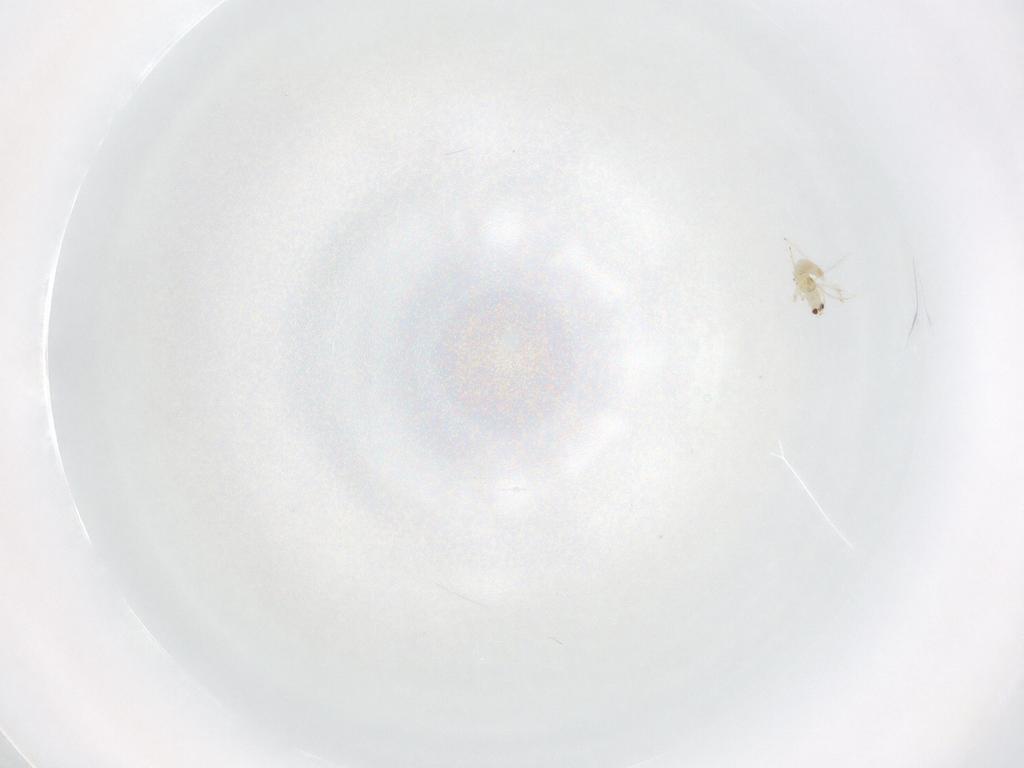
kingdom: Animalia
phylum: Arthropoda
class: Insecta
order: Thysanoptera
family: Thripidae
